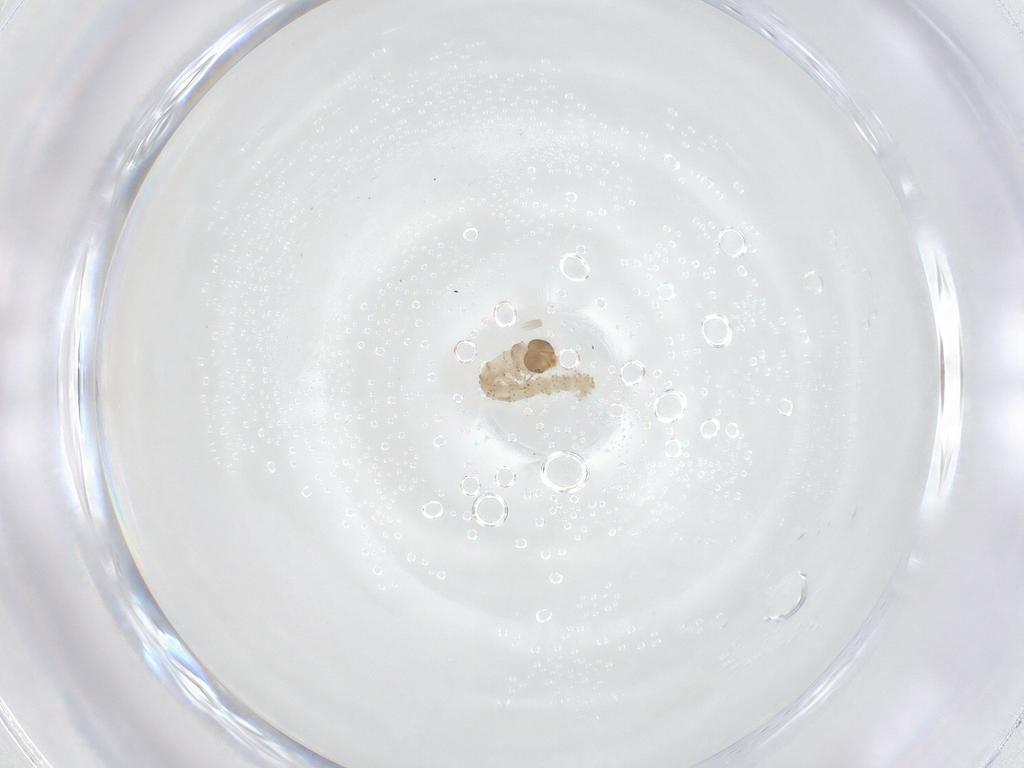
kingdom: Animalia
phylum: Arthropoda
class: Insecta
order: Lepidoptera
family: Erebidae
